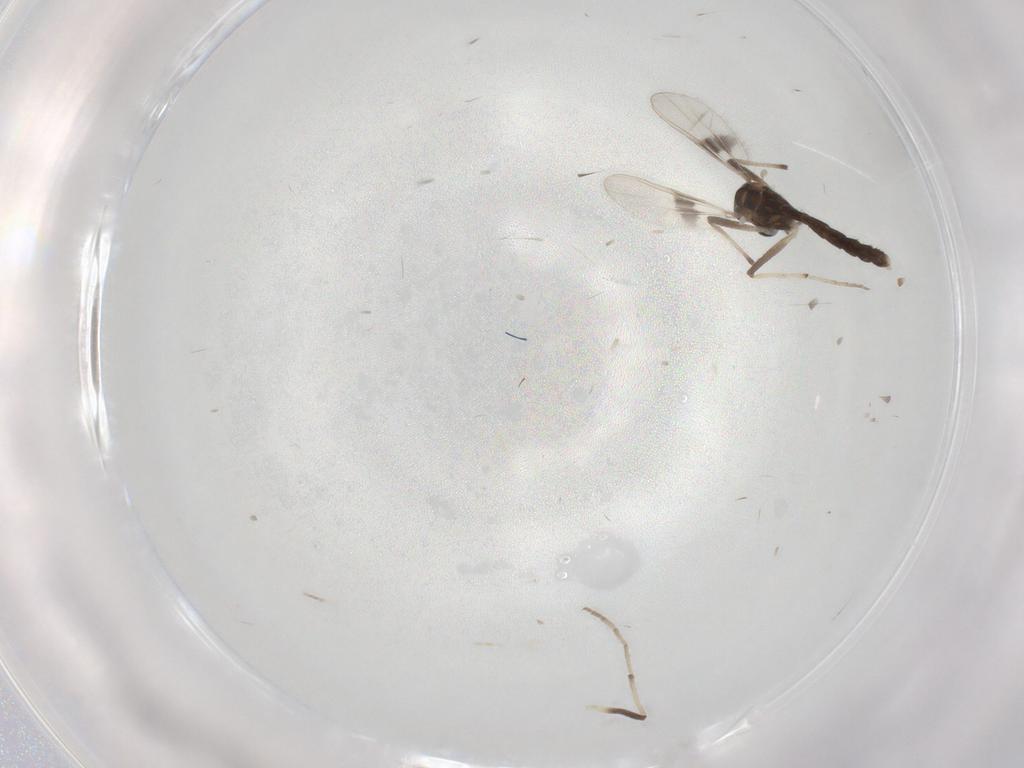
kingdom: Animalia
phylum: Arthropoda
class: Insecta
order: Diptera
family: Chironomidae
